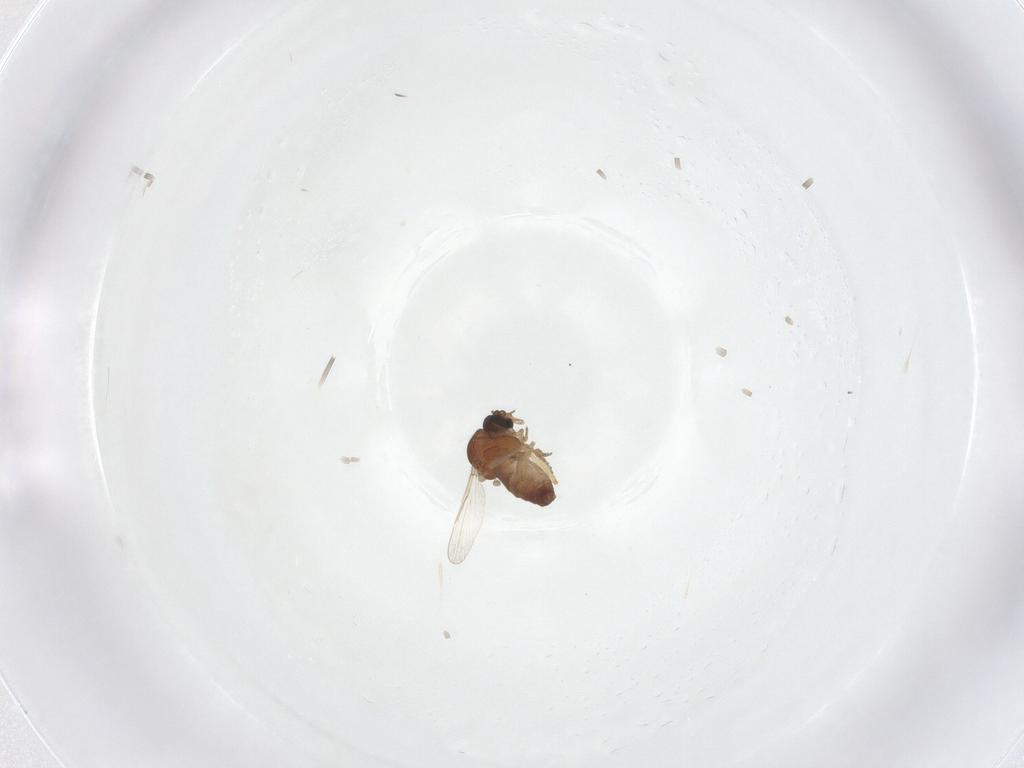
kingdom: Animalia
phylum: Arthropoda
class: Insecta
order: Diptera
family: Ceratopogonidae
